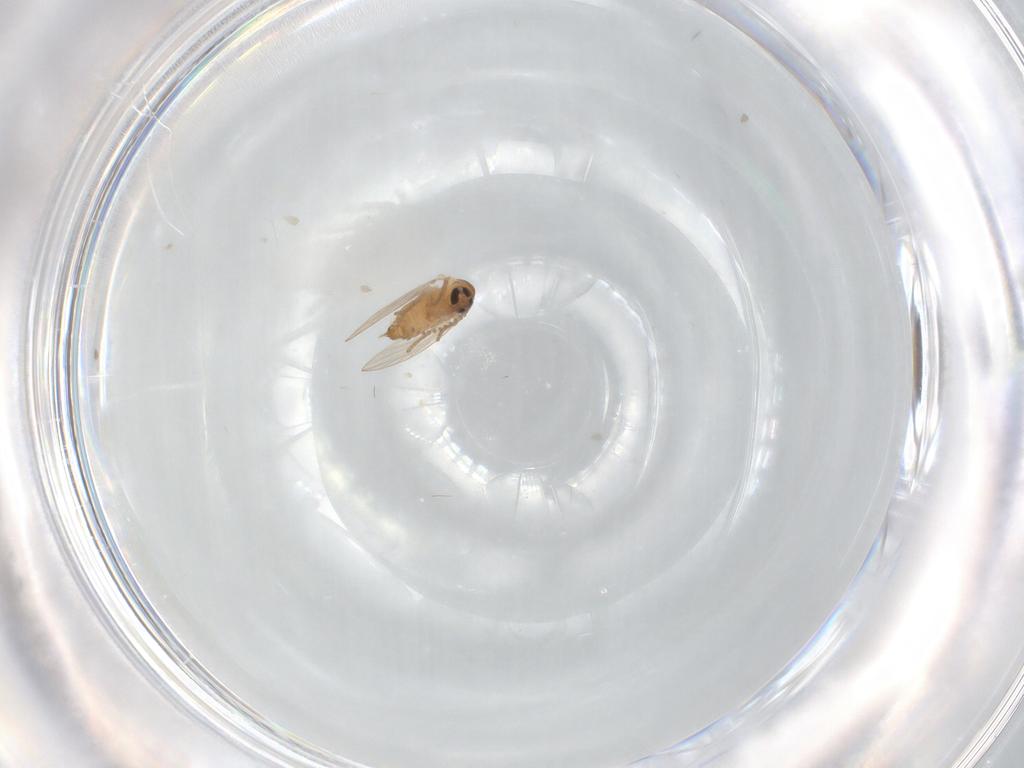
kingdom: Animalia
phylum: Arthropoda
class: Insecta
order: Diptera
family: Psychodidae
